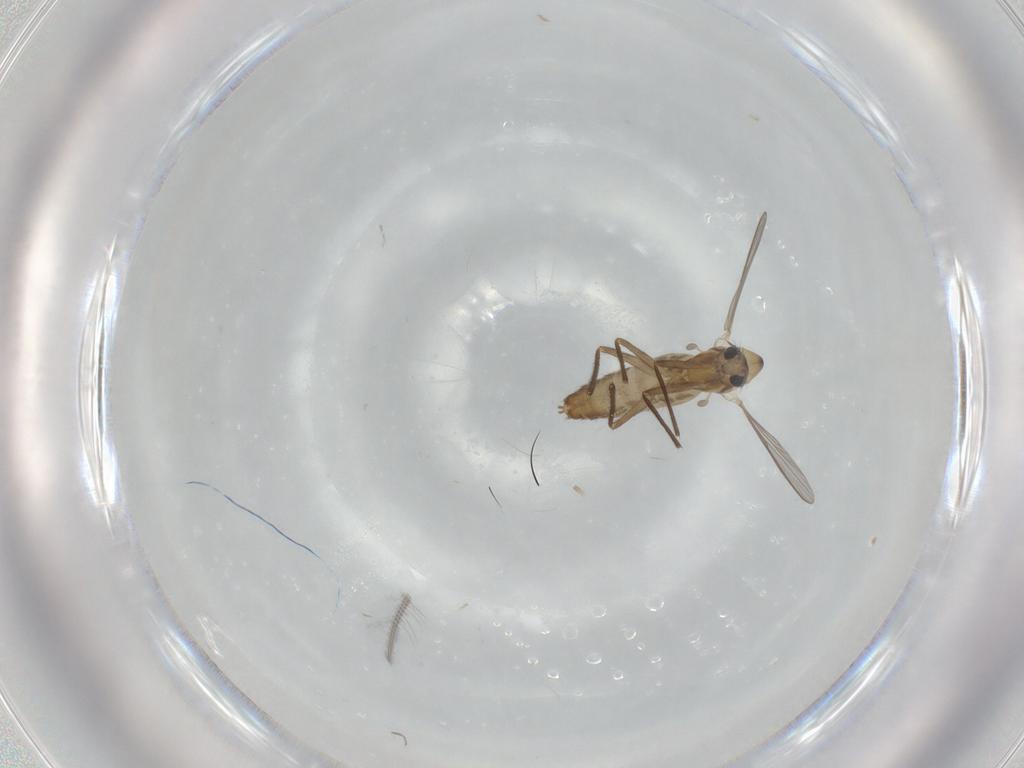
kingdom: Animalia
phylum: Arthropoda
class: Insecta
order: Diptera
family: Chironomidae
